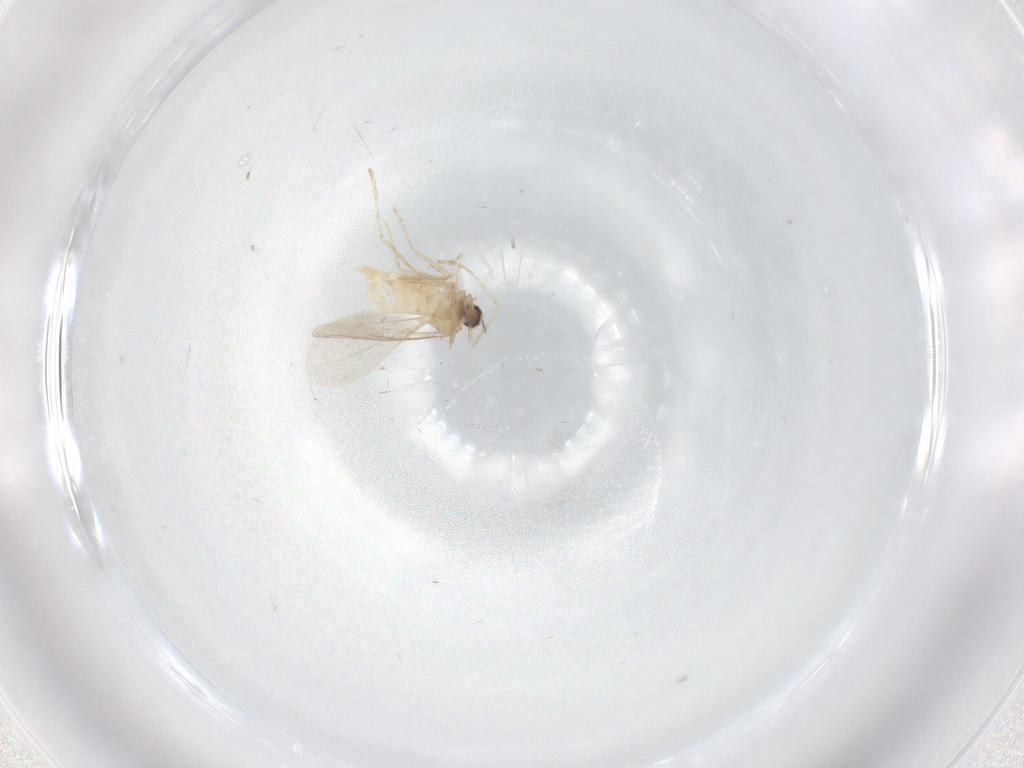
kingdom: Animalia
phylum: Arthropoda
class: Insecta
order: Diptera
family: Cecidomyiidae
